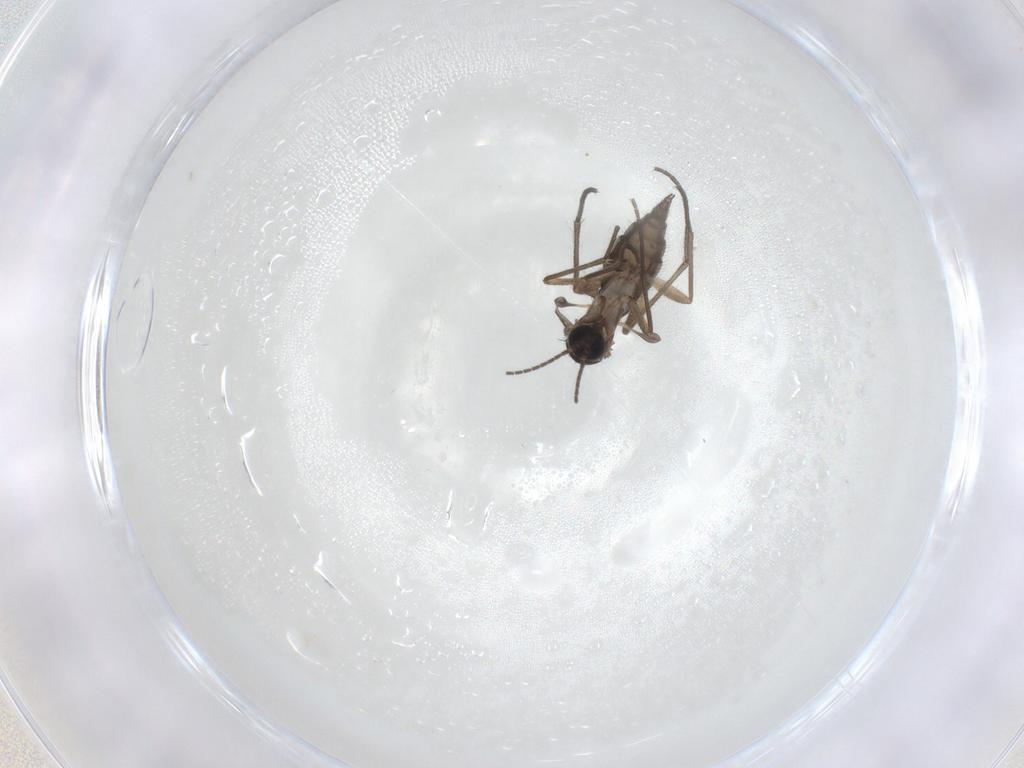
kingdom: Animalia
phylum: Arthropoda
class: Insecta
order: Diptera
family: Sciaridae
